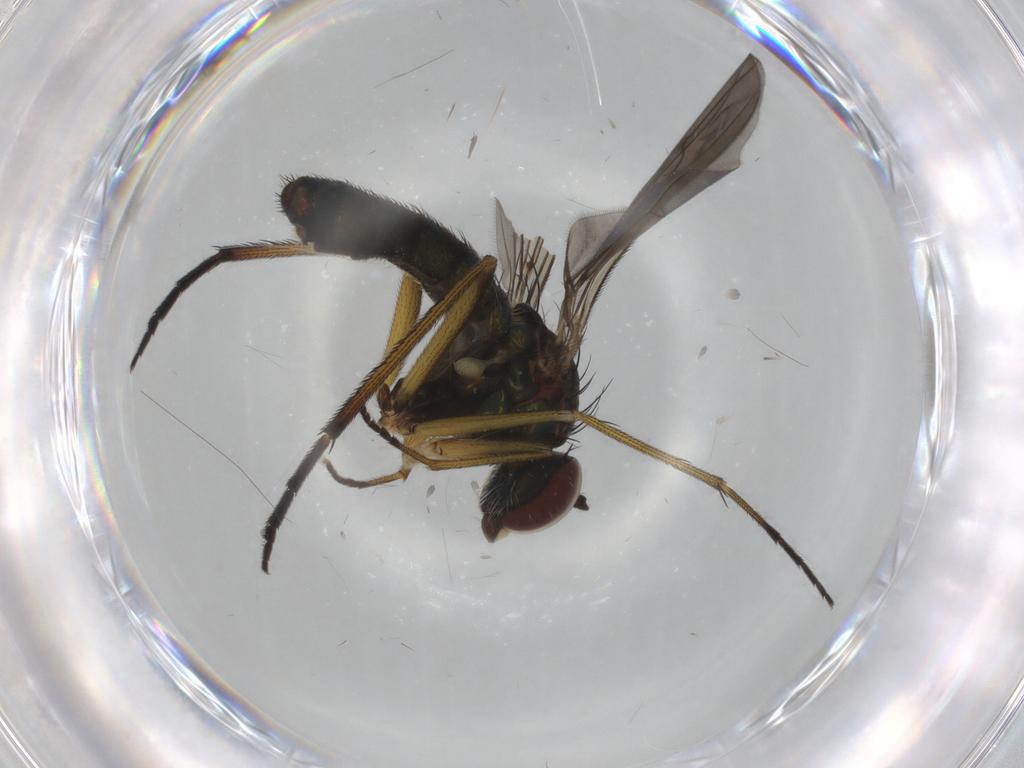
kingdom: Animalia
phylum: Arthropoda
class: Insecta
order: Diptera
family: Dolichopodidae
